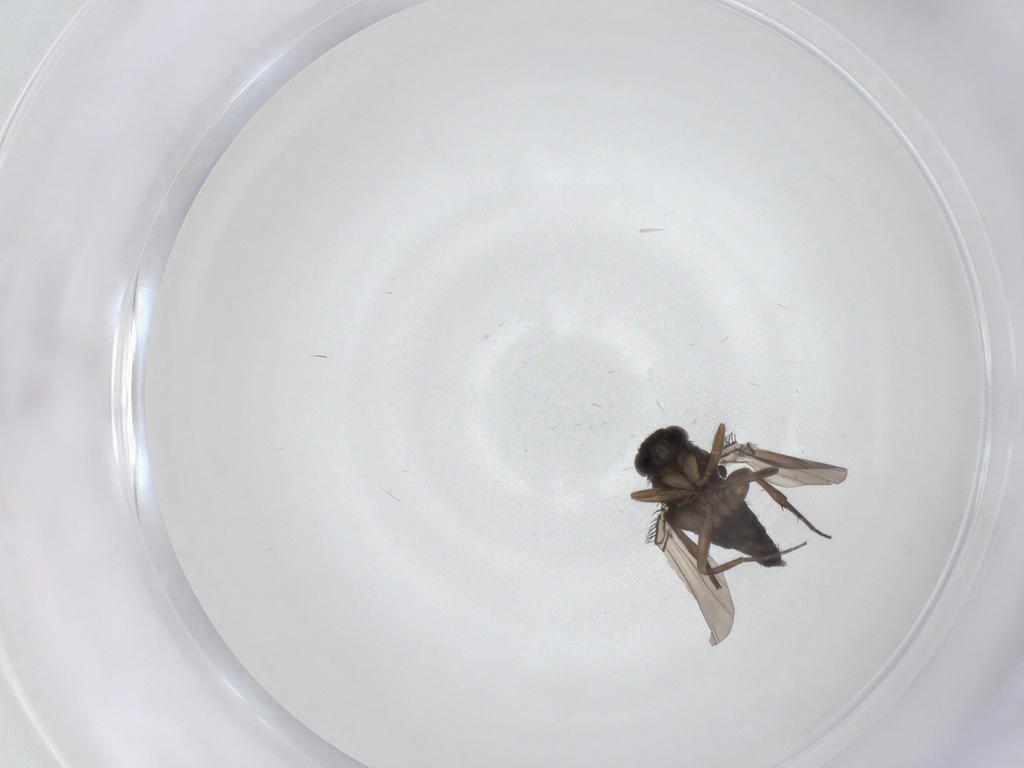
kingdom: Animalia
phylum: Arthropoda
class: Insecta
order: Diptera
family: Phoridae
